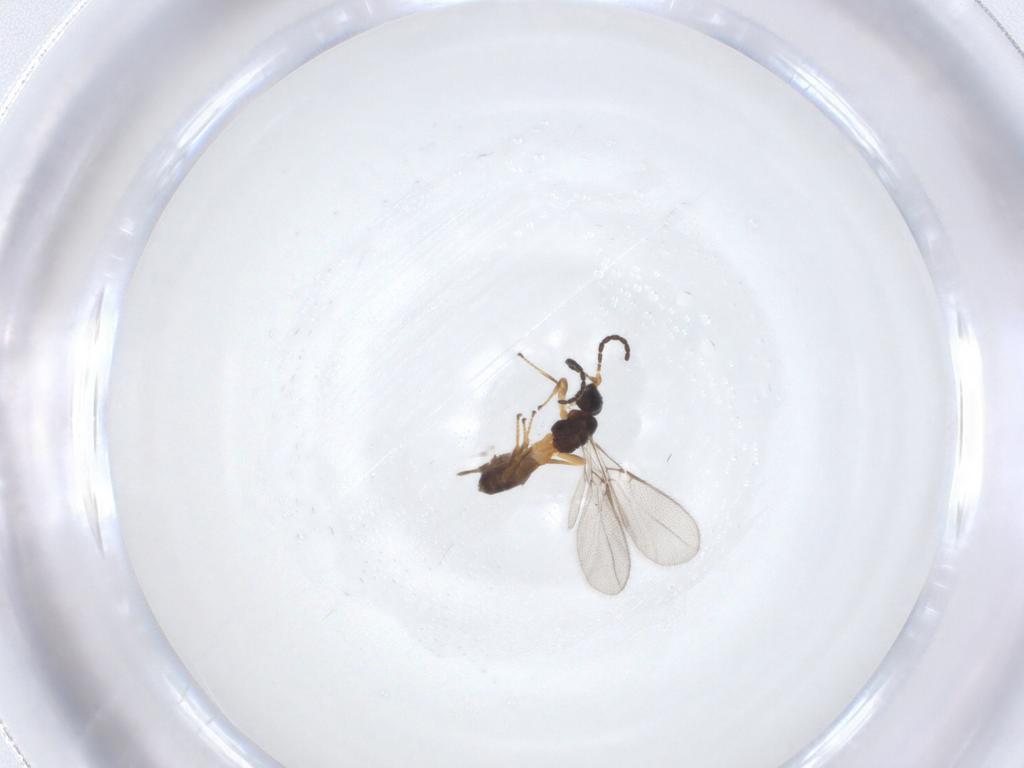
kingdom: Animalia
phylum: Arthropoda
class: Insecta
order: Hymenoptera
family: Braconidae
